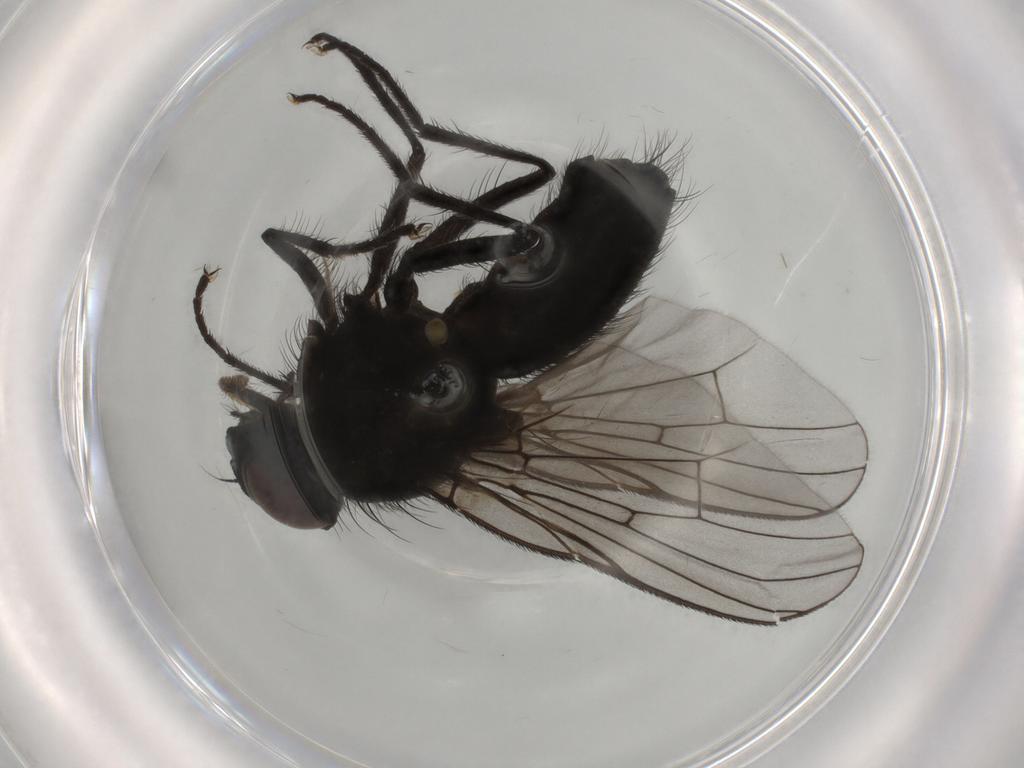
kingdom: Animalia
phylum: Arthropoda
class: Insecta
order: Diptera
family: Muscidae
